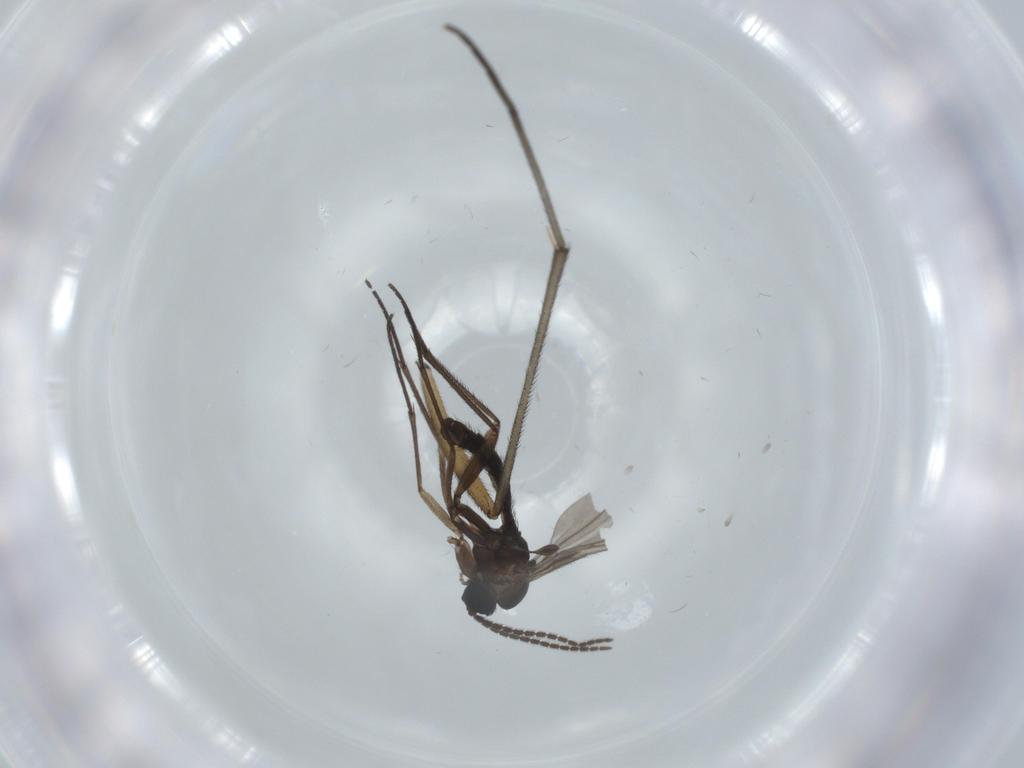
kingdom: Animalia
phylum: Arthropoda
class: Insecta
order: Diptera
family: Sciaridae
